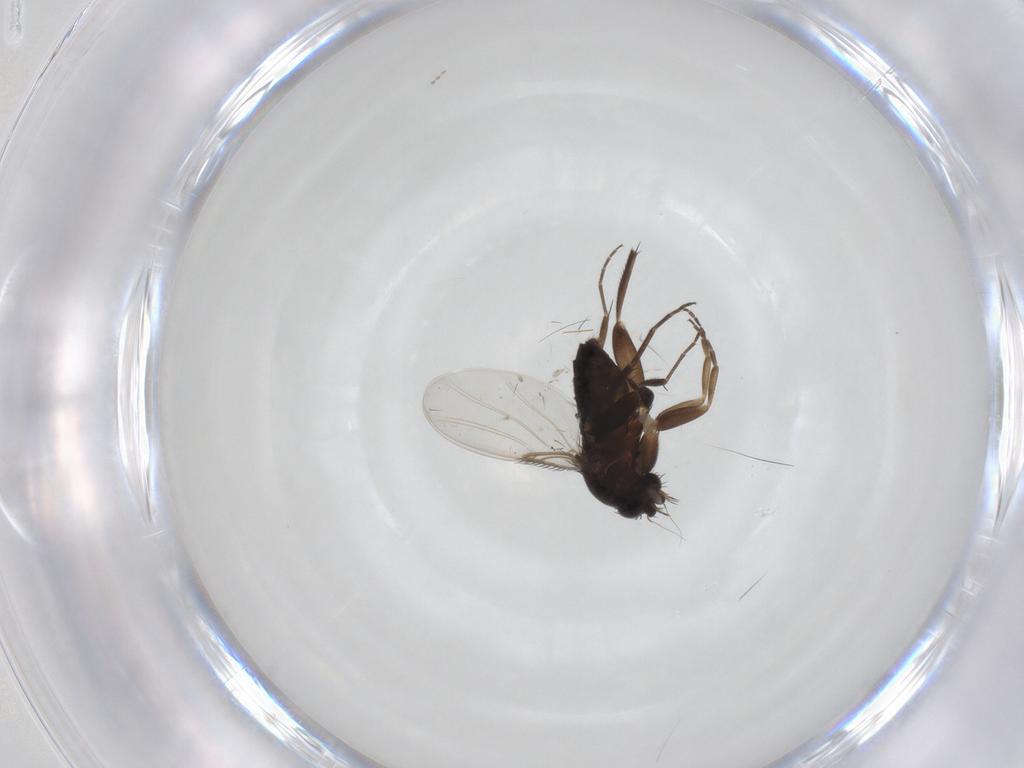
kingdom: Animalia
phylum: Arthropoda
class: Insecta
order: Diptera
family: Phoridae
